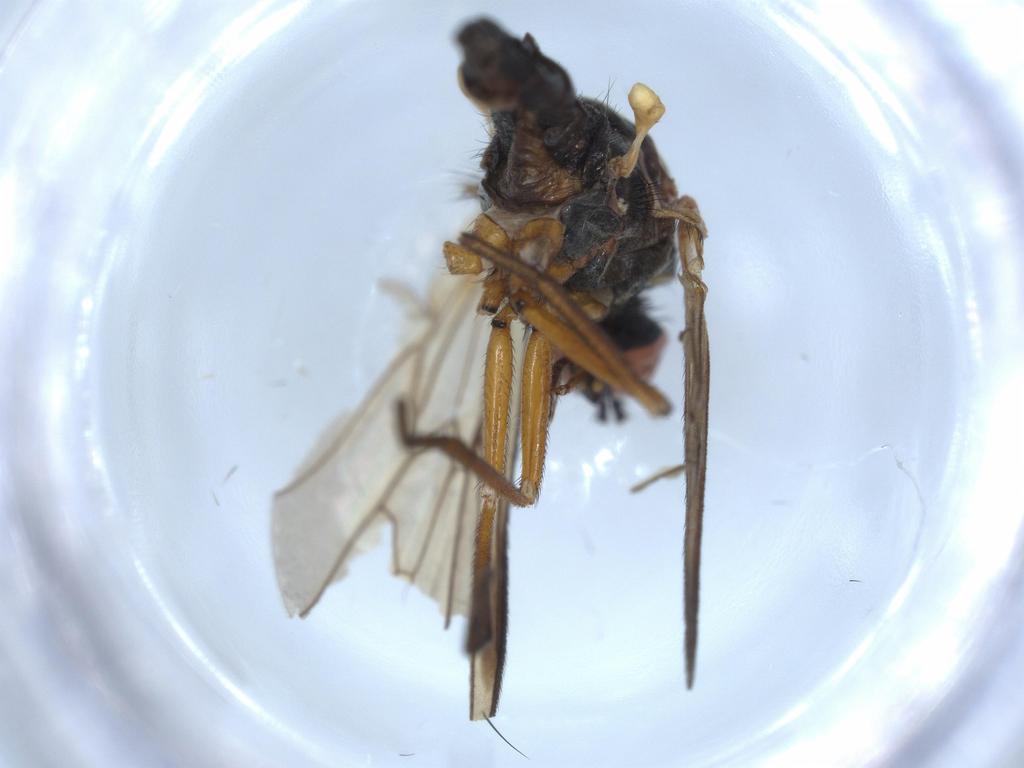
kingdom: Animalia
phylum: Arthropoda
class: Insecta
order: Diptera
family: Empididae
